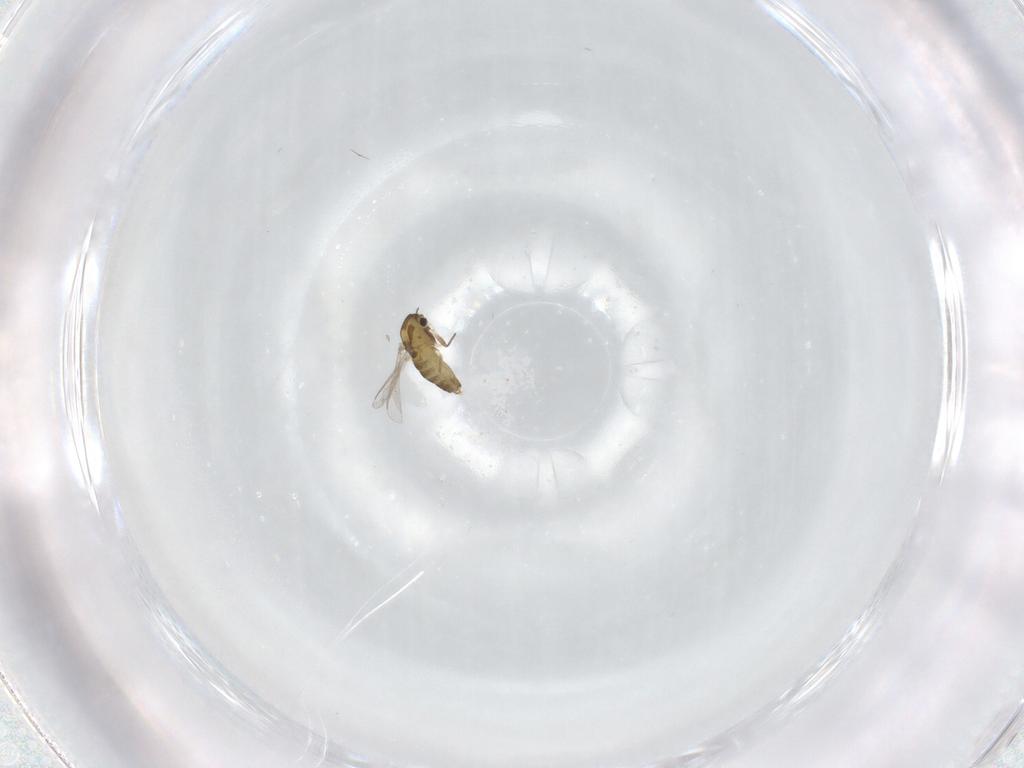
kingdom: Animalia
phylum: Arthropoda
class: Insecta
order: Diptera
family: Chironomidae
